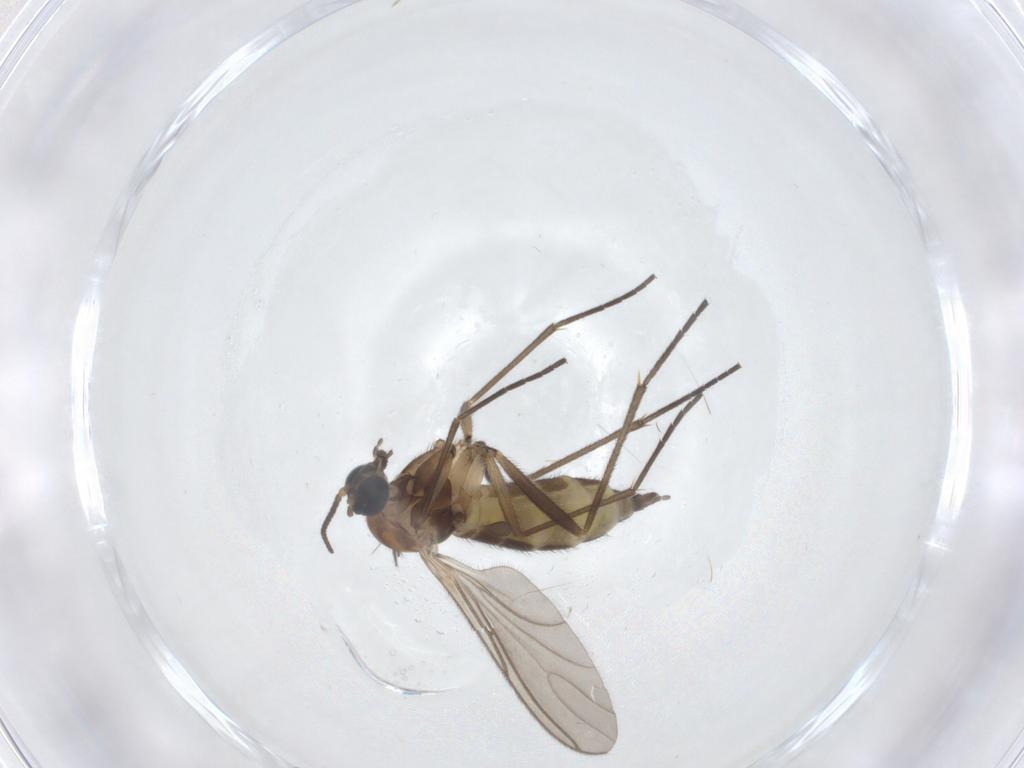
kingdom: Animalia
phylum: Arthropoda
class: Insecta
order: Diptera
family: Sciaridae
